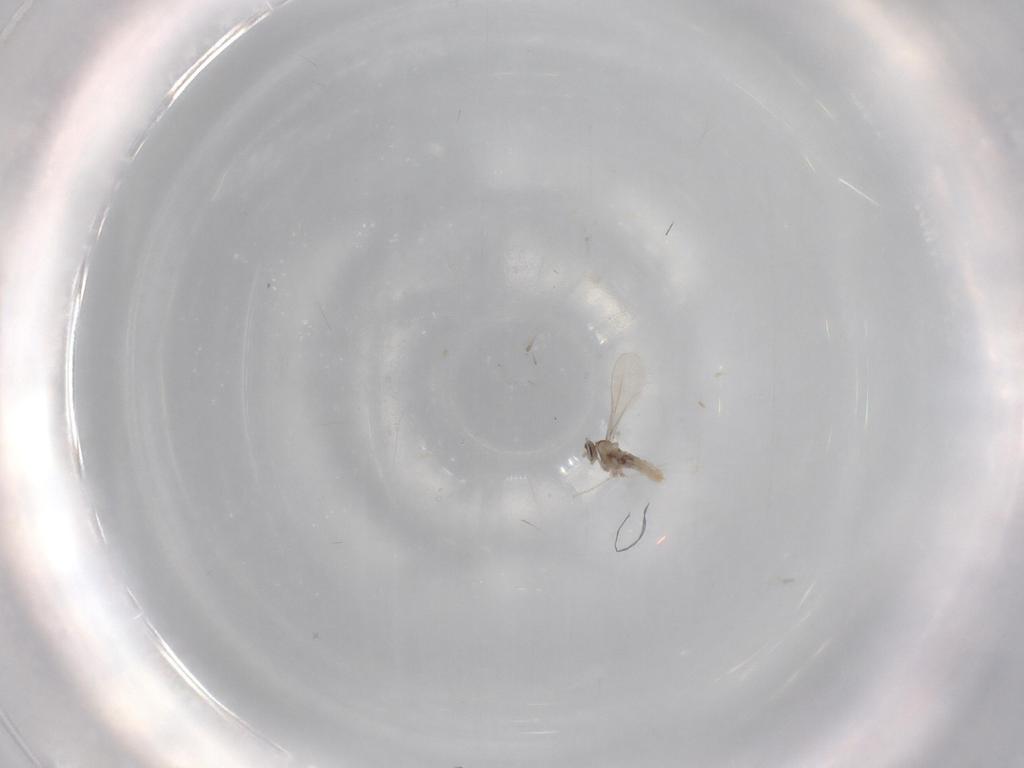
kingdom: Animalia
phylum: Arthropoda
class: Insecta
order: Diptera
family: Cecidomyiidae
